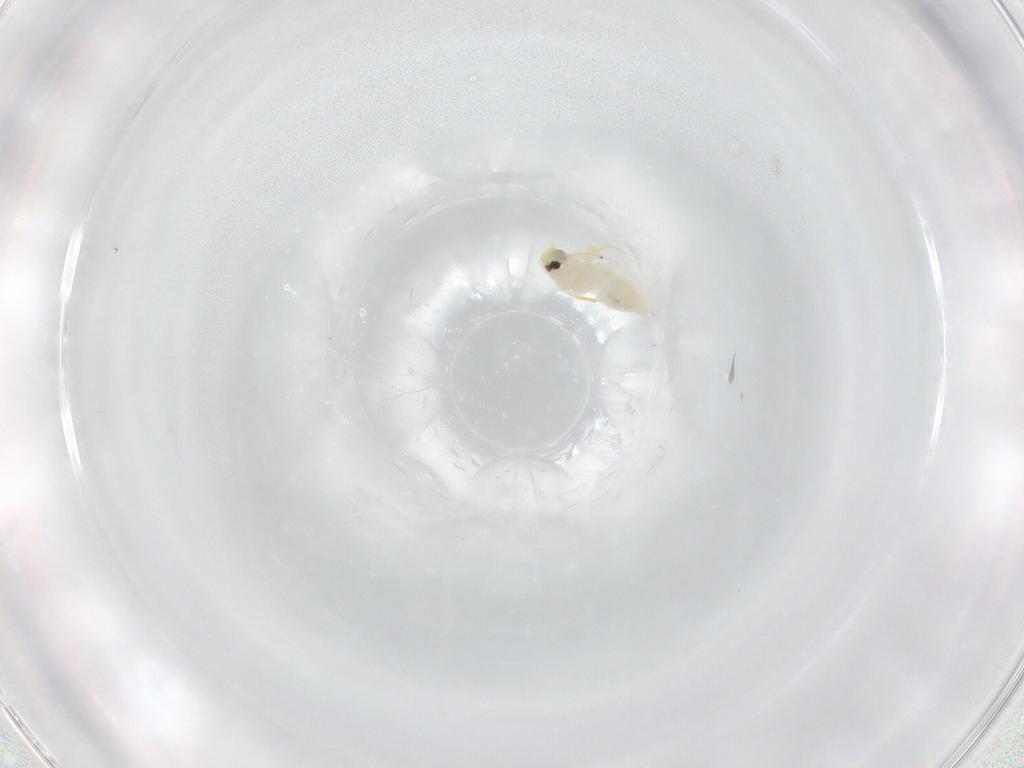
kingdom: Animalia
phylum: Arthropoda
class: Insecta
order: Hemiptera
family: Aleyrodidae
